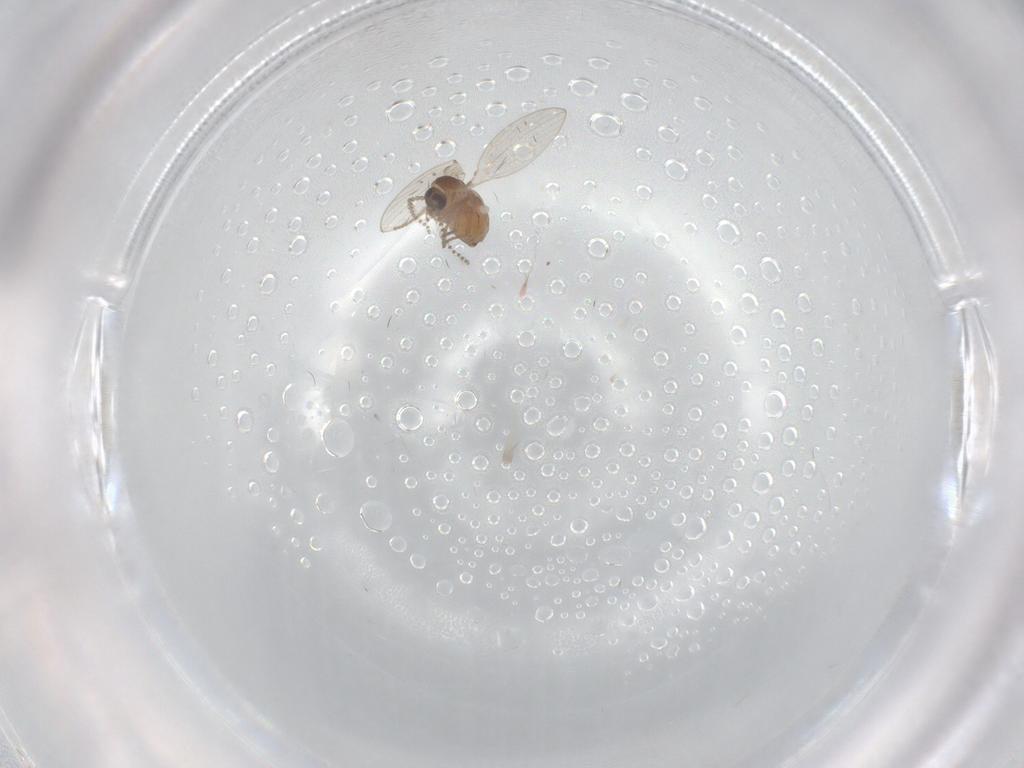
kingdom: Animalia
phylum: Arthropoda
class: Insecta
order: Diptera
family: Psychodidae
